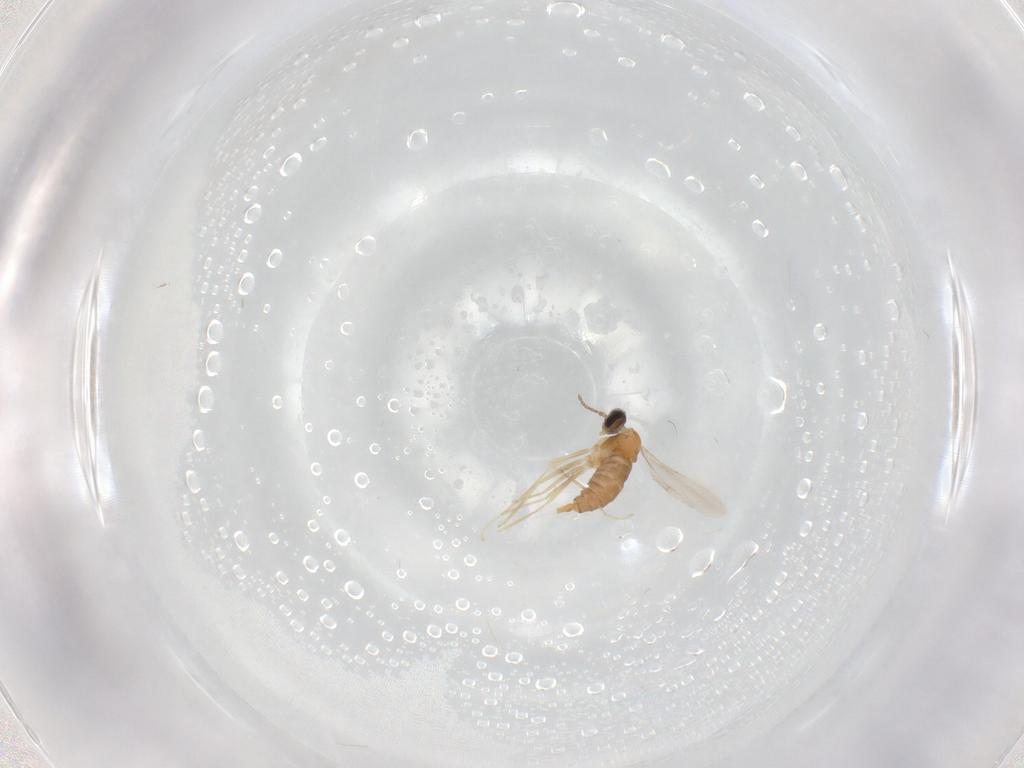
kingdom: Animalia
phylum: Arthropoda
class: Insecta
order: Diptera
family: Cecidomyiidae
